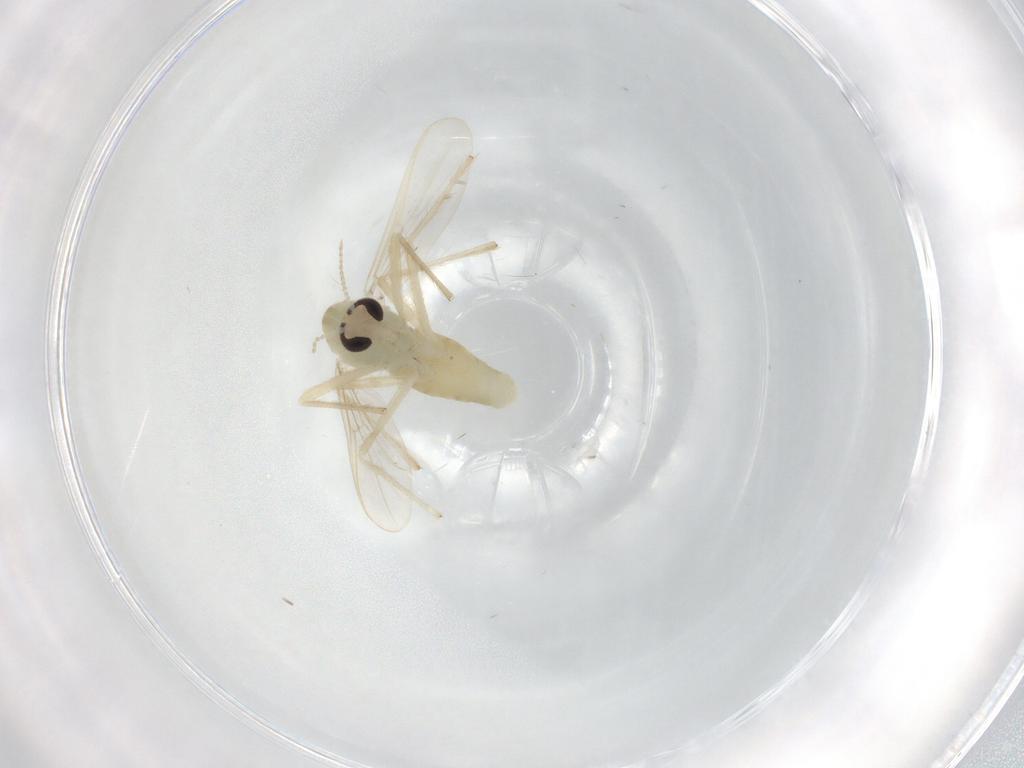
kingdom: Animalia
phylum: Arthropoda
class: Insecta
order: Diptera
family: Chironomidae
